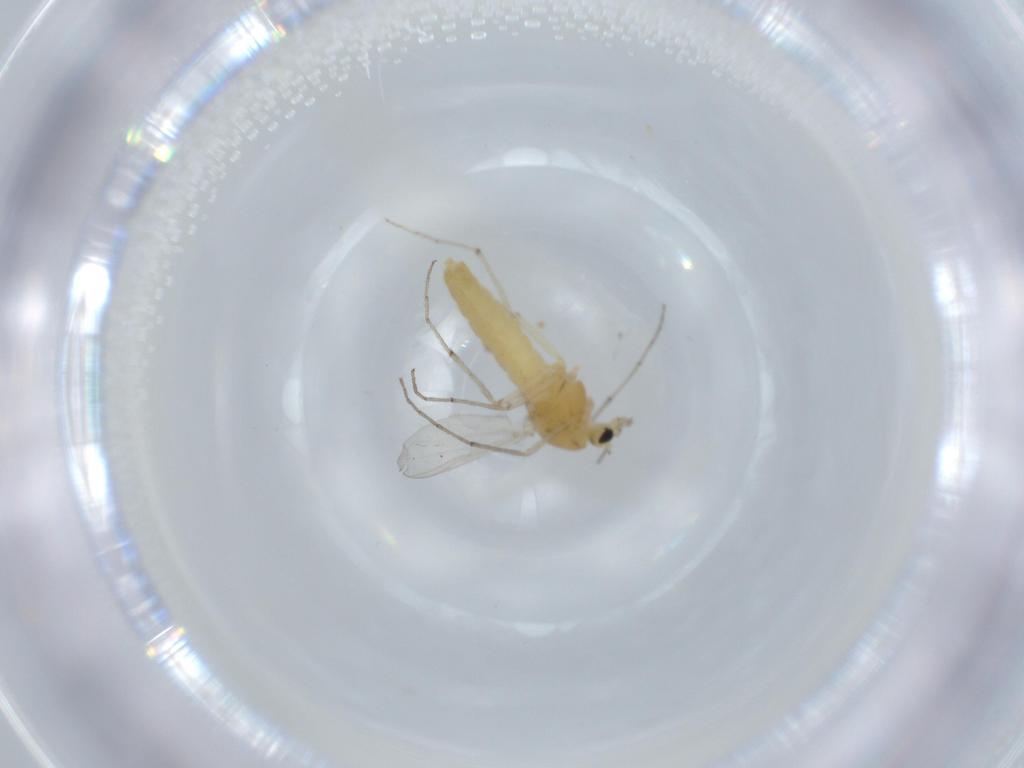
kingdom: Animalia
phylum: Arthropoda
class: Insecta
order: Diptera
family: Chironomidae
